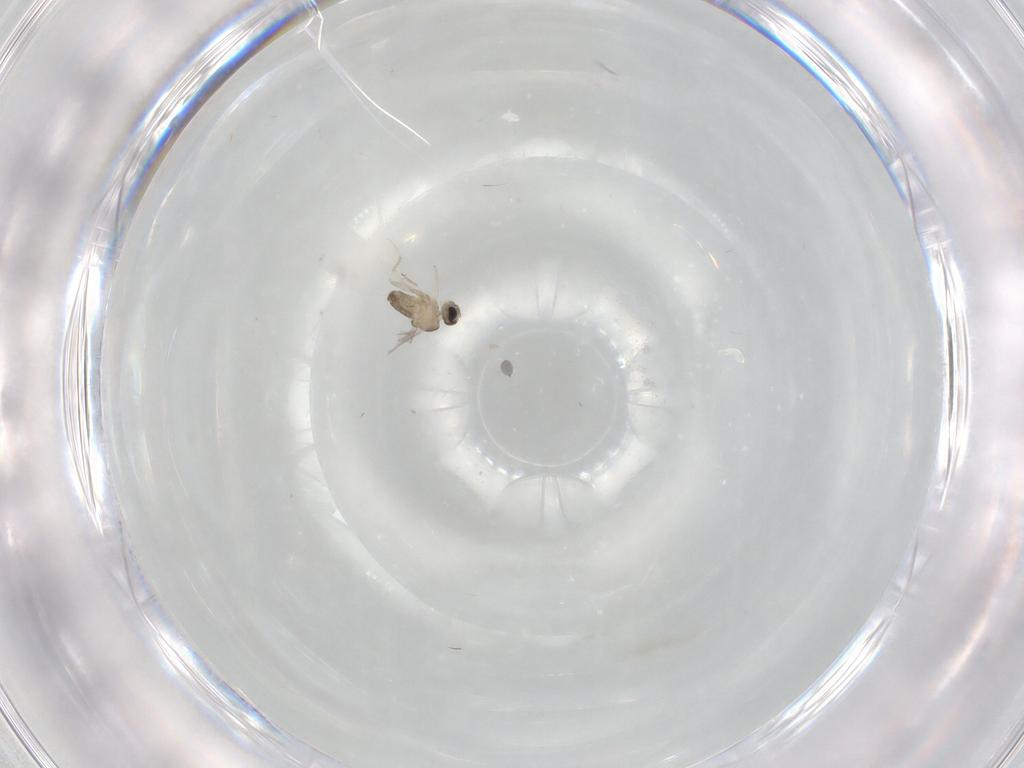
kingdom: Animalia
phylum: Arthropoda
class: Insecta
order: Diptera
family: Cecidomyiidae
